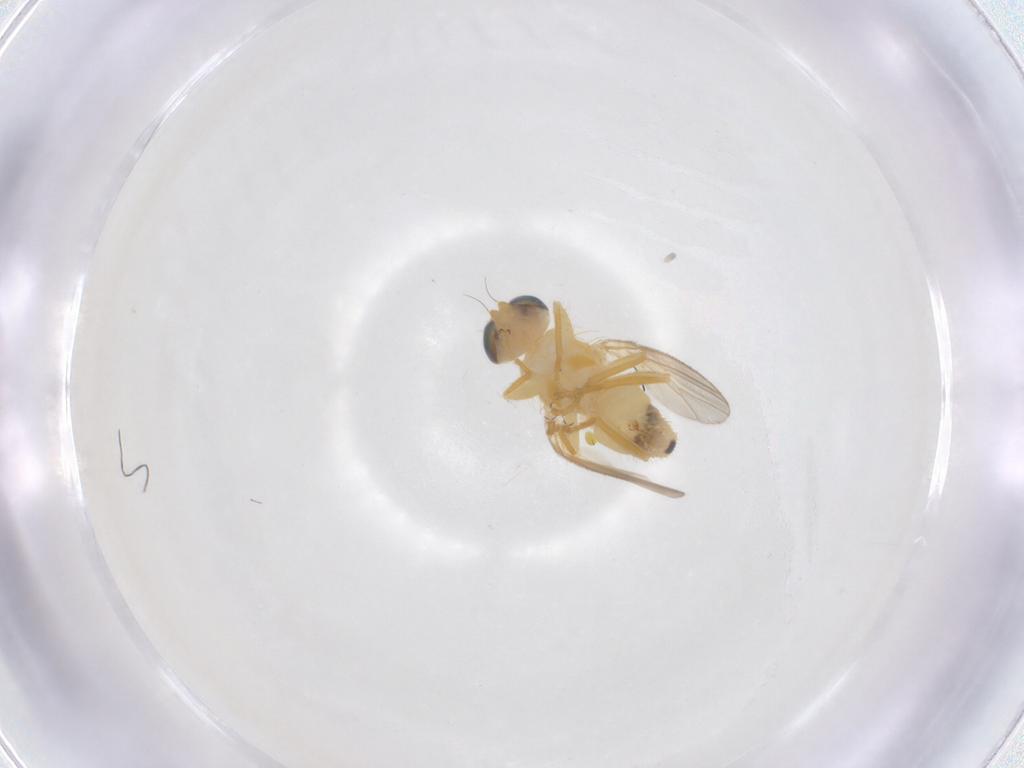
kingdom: Animalia
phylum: Arthropoda
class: Insecta
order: Diptera
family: Chyromyidae
